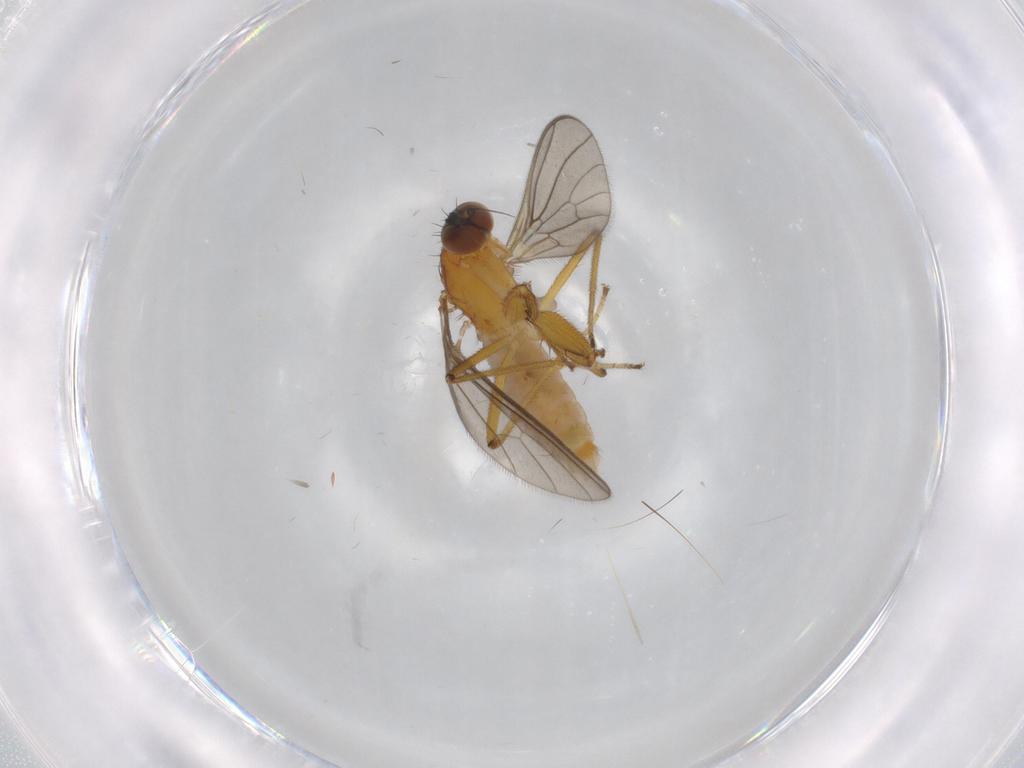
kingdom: Animalia
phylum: Arthropoda
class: Insecta
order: Diptera
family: Empididae
